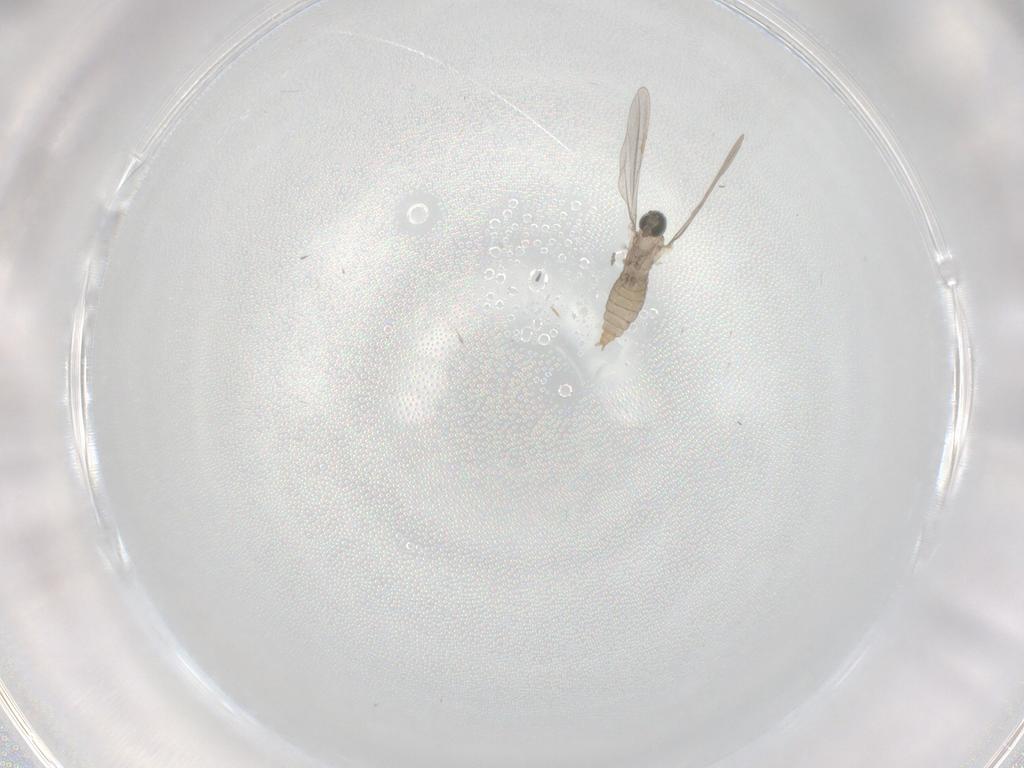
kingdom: Animalia
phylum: Arthropoda
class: Insecta
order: Diptera
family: Cecidomyiidae
